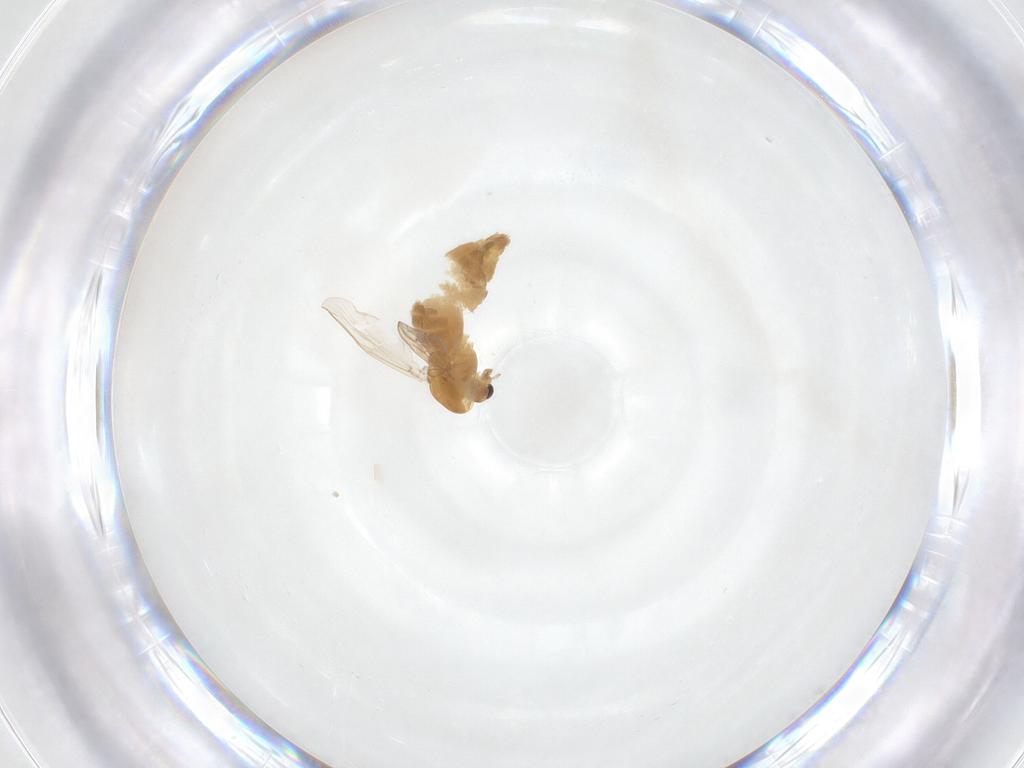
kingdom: Animalia
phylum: Arthropoda
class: Insecta
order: Diptera
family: Chironomidae
